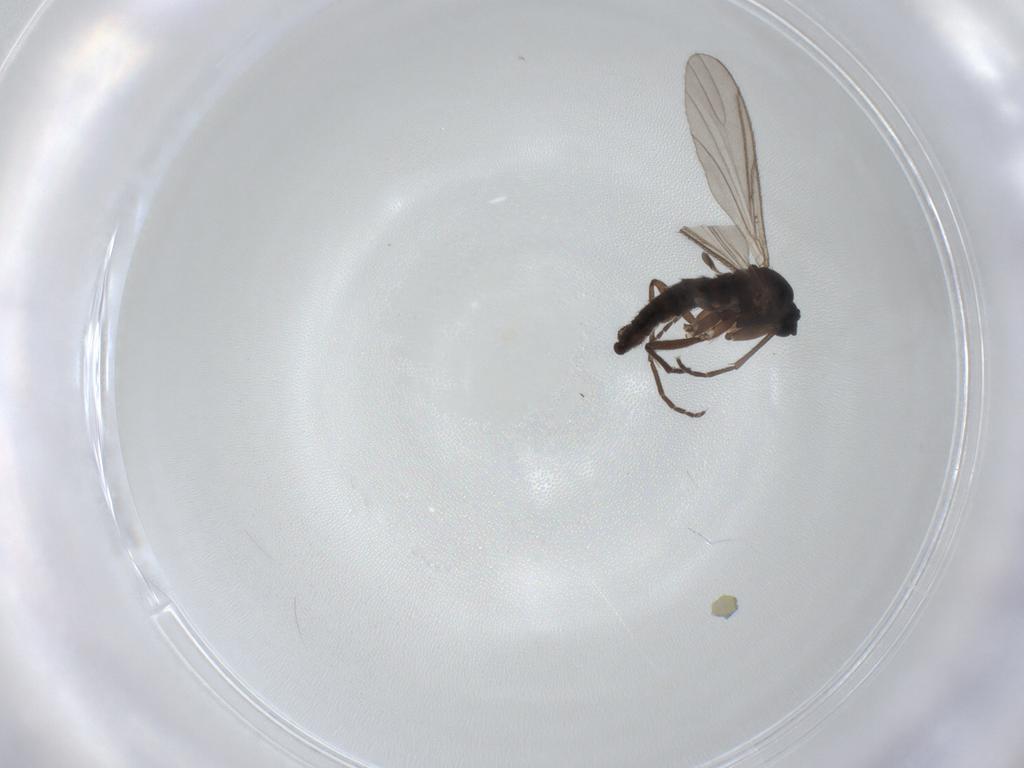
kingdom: Animalia
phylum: Arthropoda
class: Insecta
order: Diptera
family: Sciaridae
